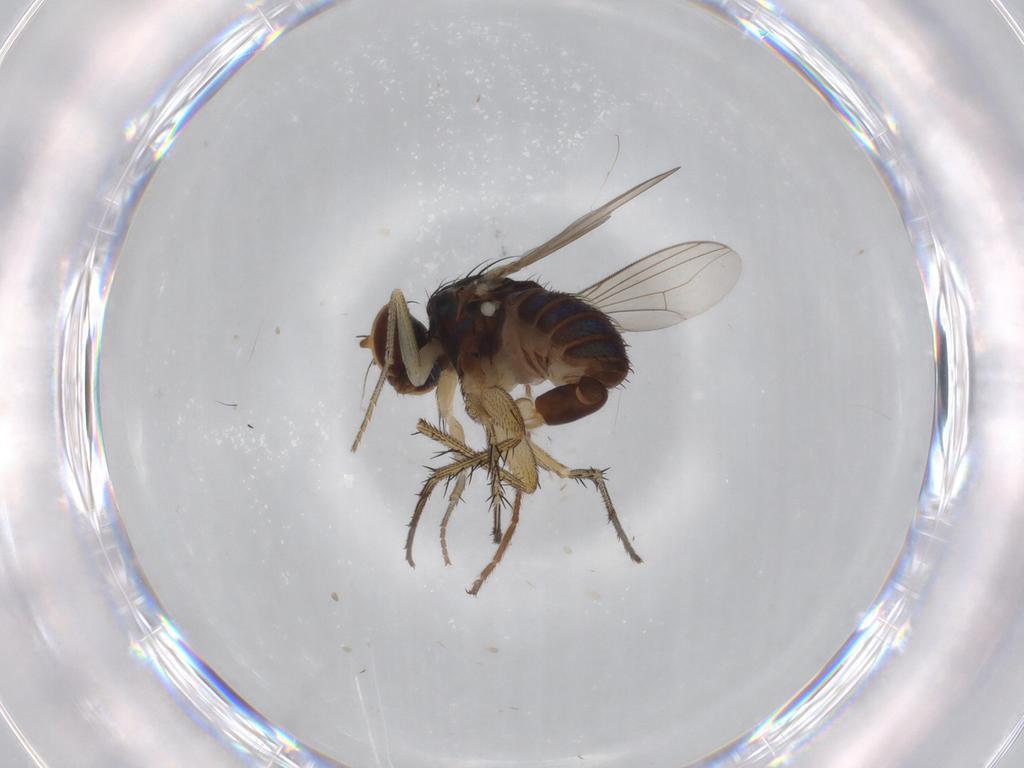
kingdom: Animalia
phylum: Arthropoda
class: Insecta
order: Diptera
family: Dolichopodidae
